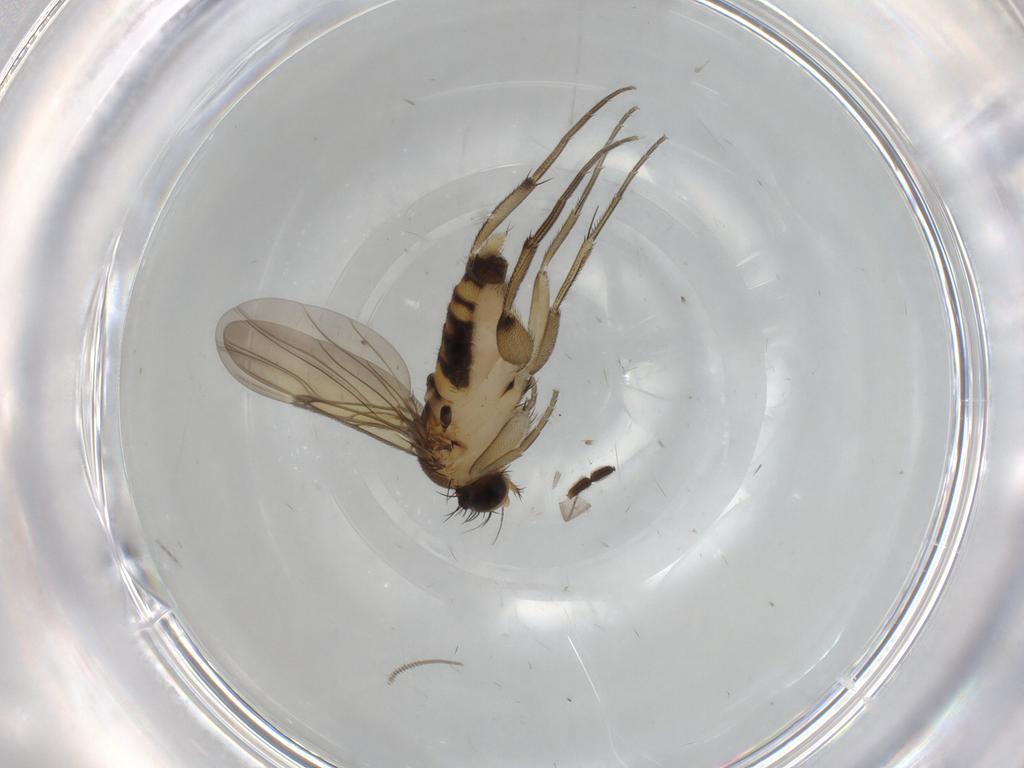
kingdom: Animalia
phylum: Arthropoda
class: Insecta
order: Diptera
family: Sciaridae
